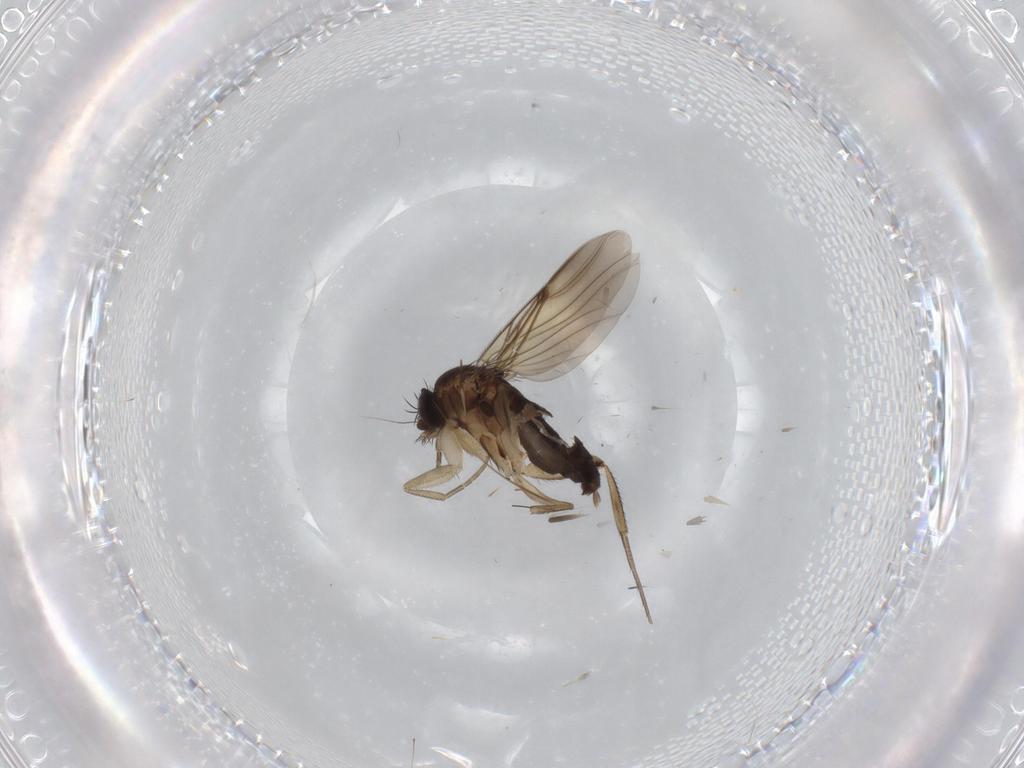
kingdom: Animalia
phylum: Arthropoda
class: Insecta
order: Diptera
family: Phoridae
